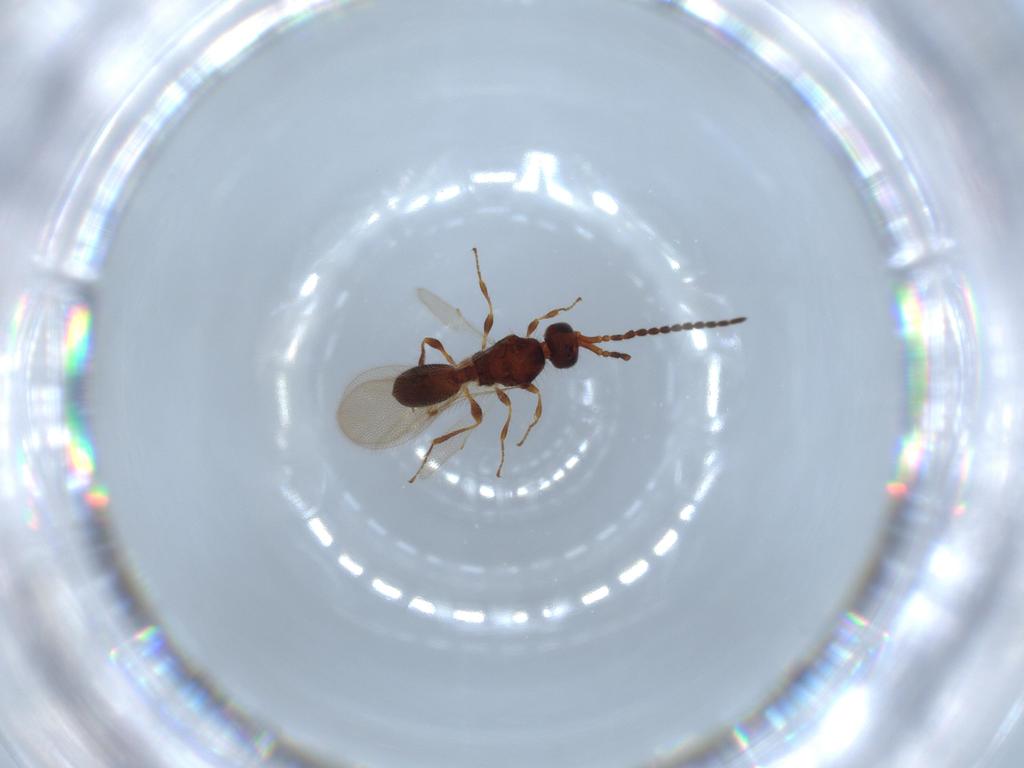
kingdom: Animalia
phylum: Arthropoda
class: Insecta
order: Hymenoptera
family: Diapriidae
